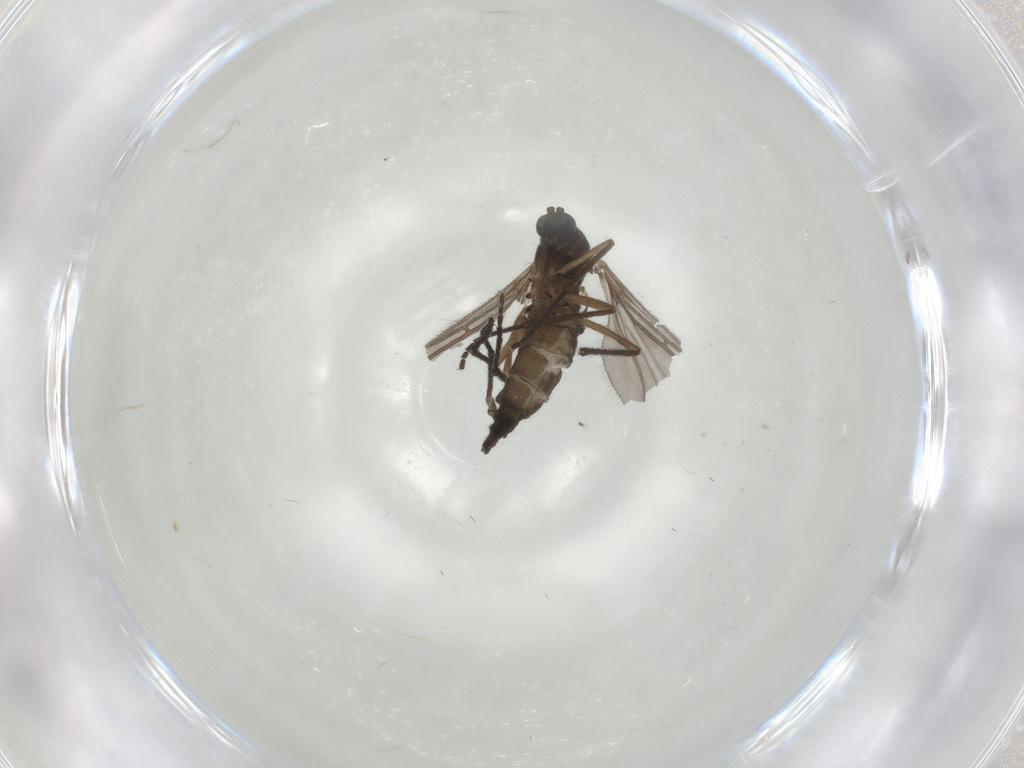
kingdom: Animalia
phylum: Arthropoda
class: Insecta
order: Diptera
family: Sciaridae
